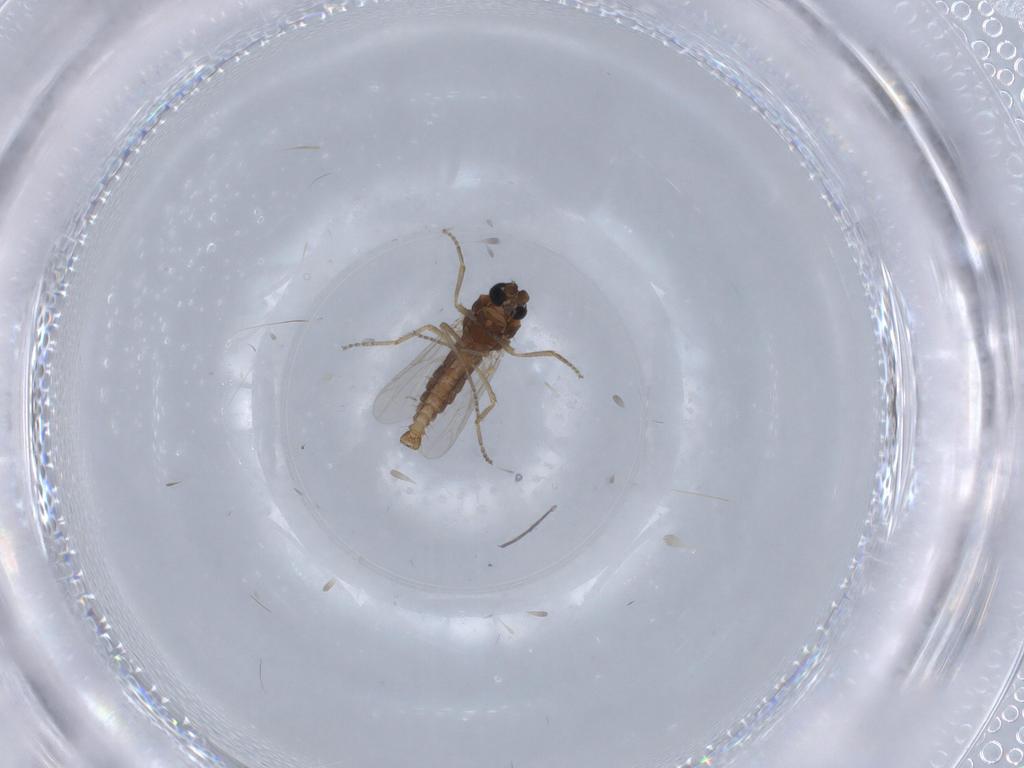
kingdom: Animalia
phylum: Arthropoda
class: Insecta
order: Diptera
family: Ceratopogonidae
